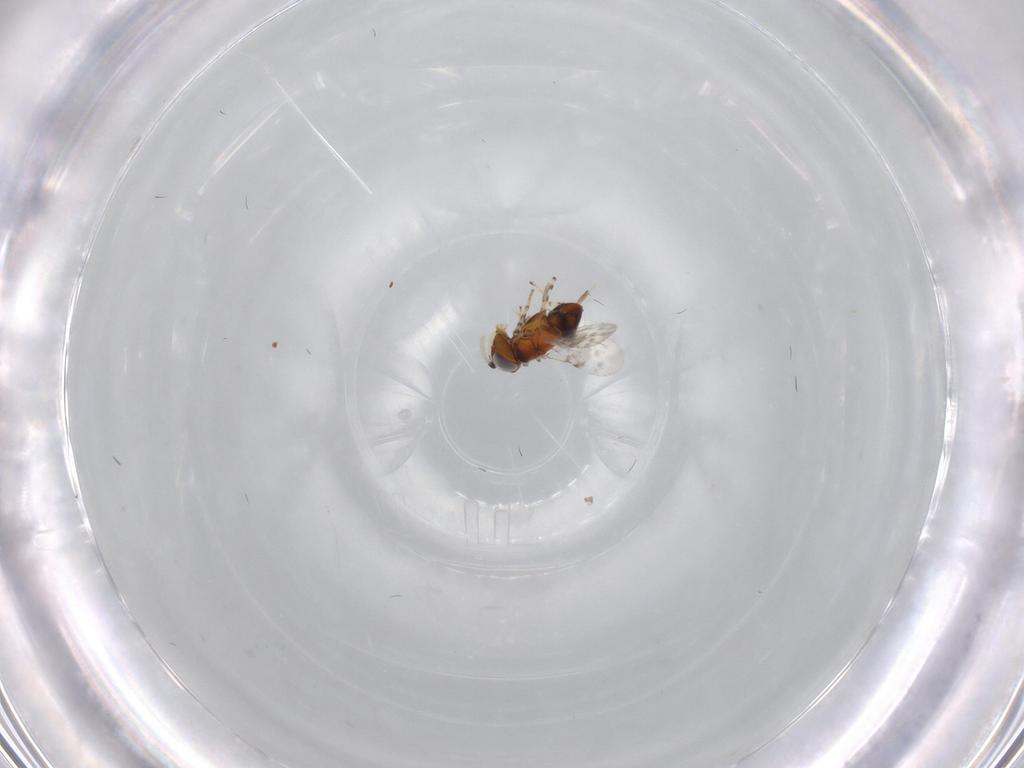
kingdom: Animalia
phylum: Arthropoda
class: Insecta
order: Hymenoptera
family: Encyrtidae
